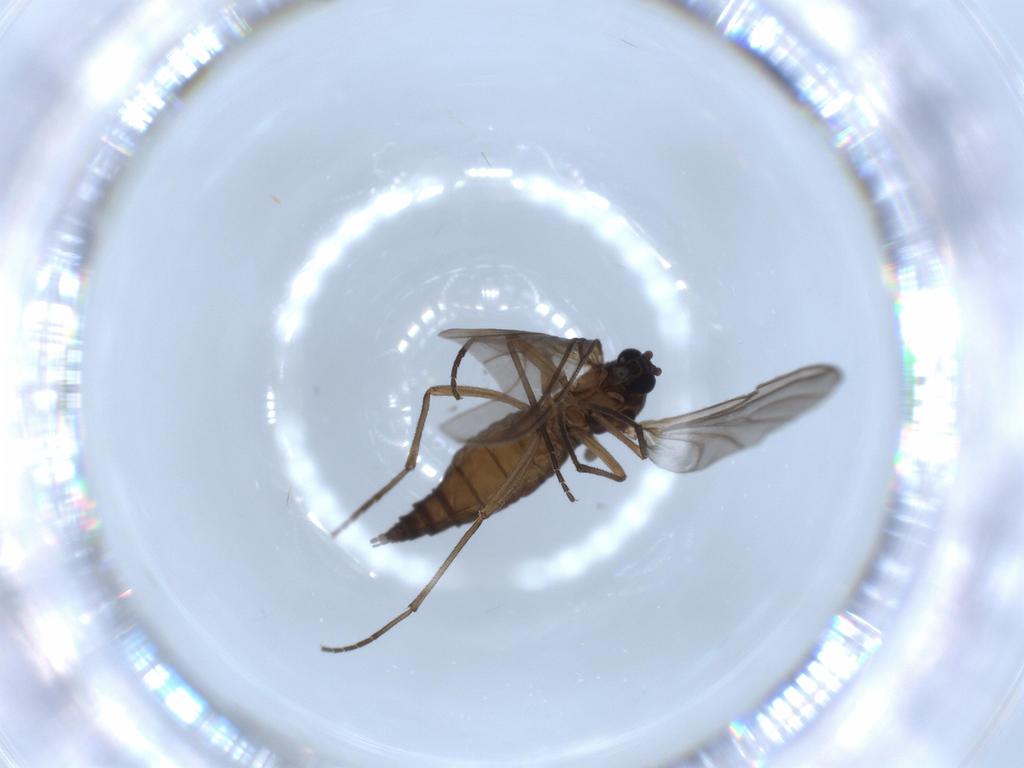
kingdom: Animalia
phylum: Arthropoda
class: Insecta
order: Diptera
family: Sciaridae
